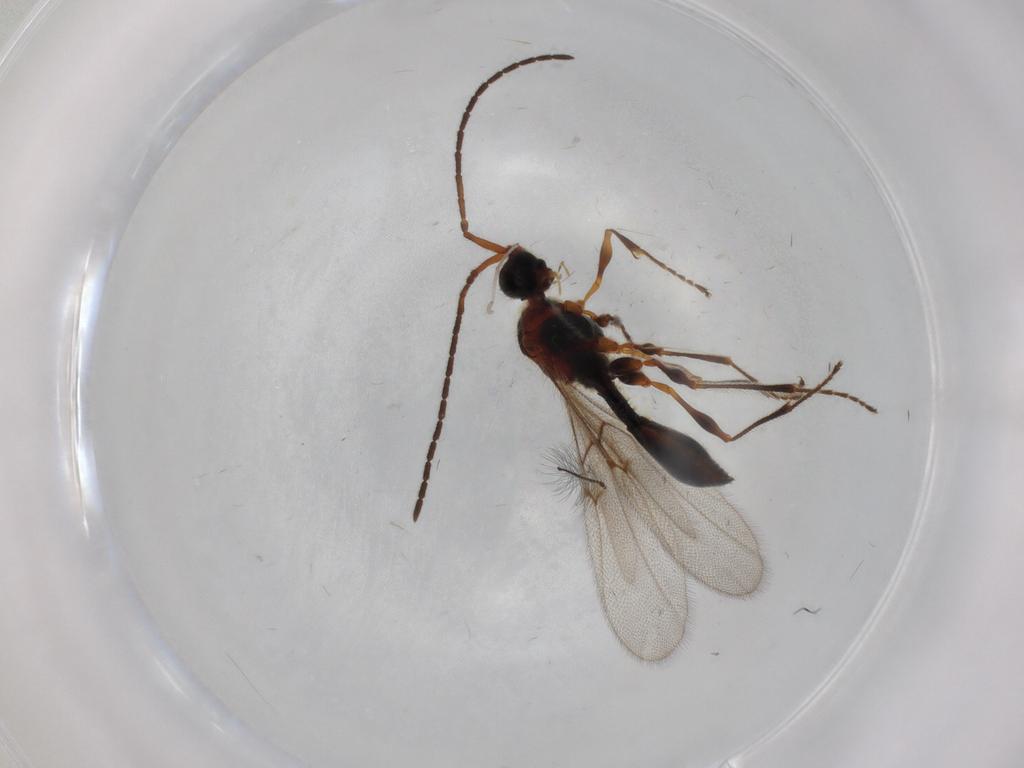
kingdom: Animalia
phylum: Arthropoda
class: Insecta
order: Hymenoptera
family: Diapriidae
